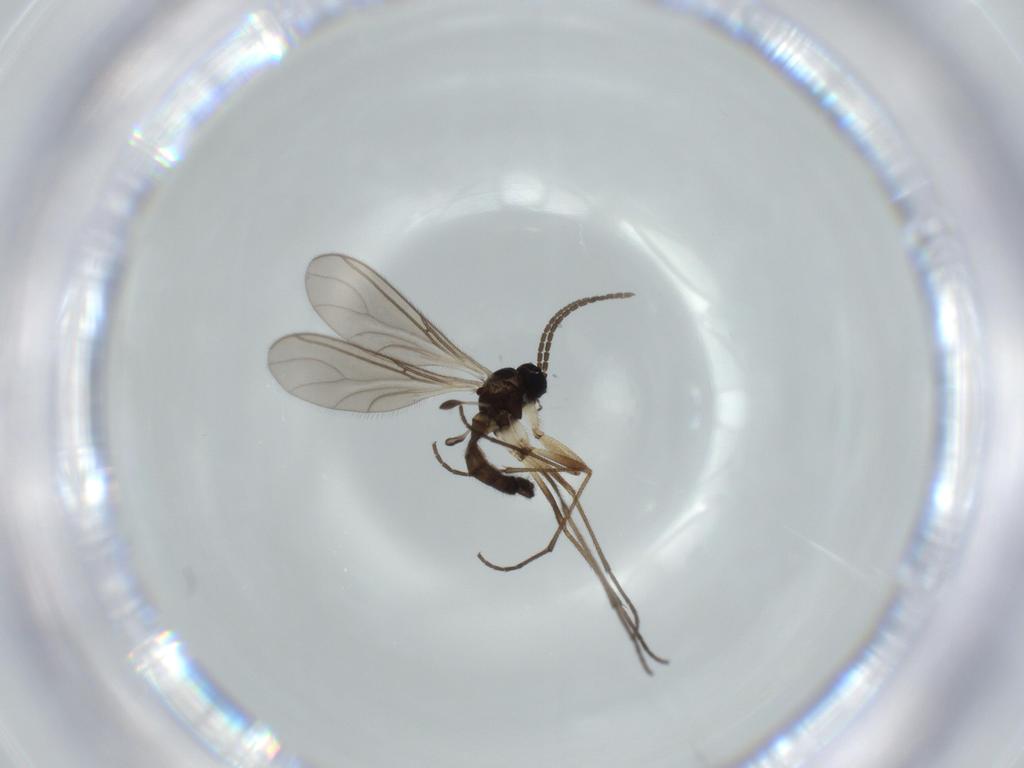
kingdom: Animalia
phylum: Arthropoda
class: Insecta
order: Diptera
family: Sciaridae
